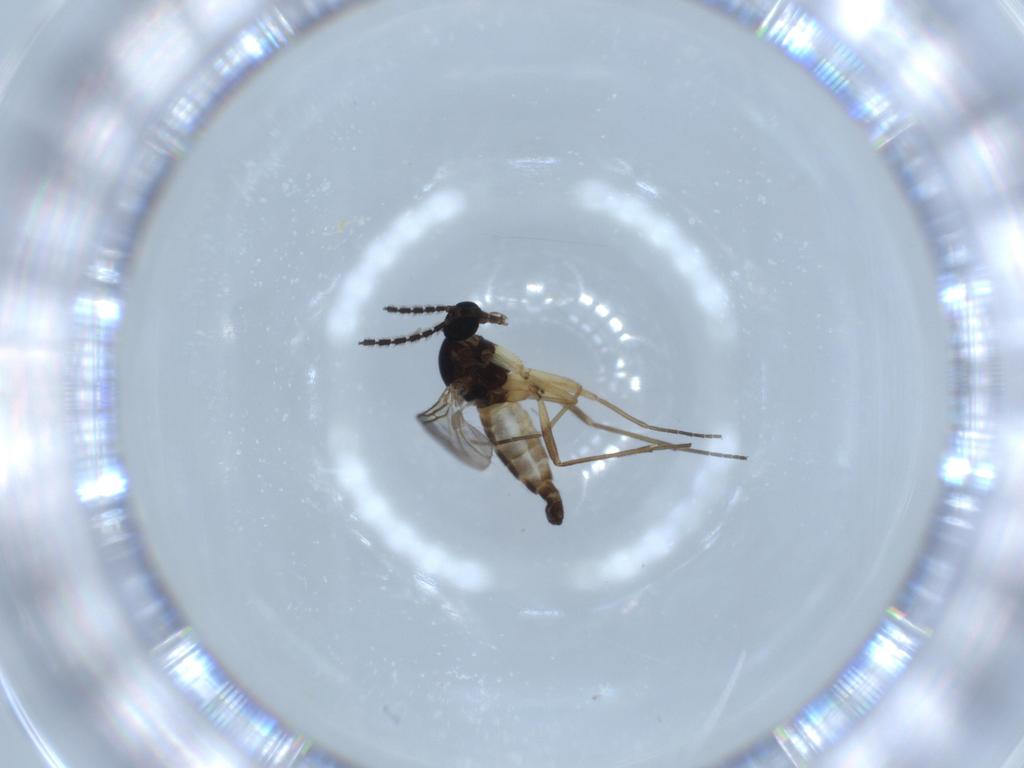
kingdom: Animalia
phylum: Arthropoda
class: Insecta
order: Diptera
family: Sciaridae
